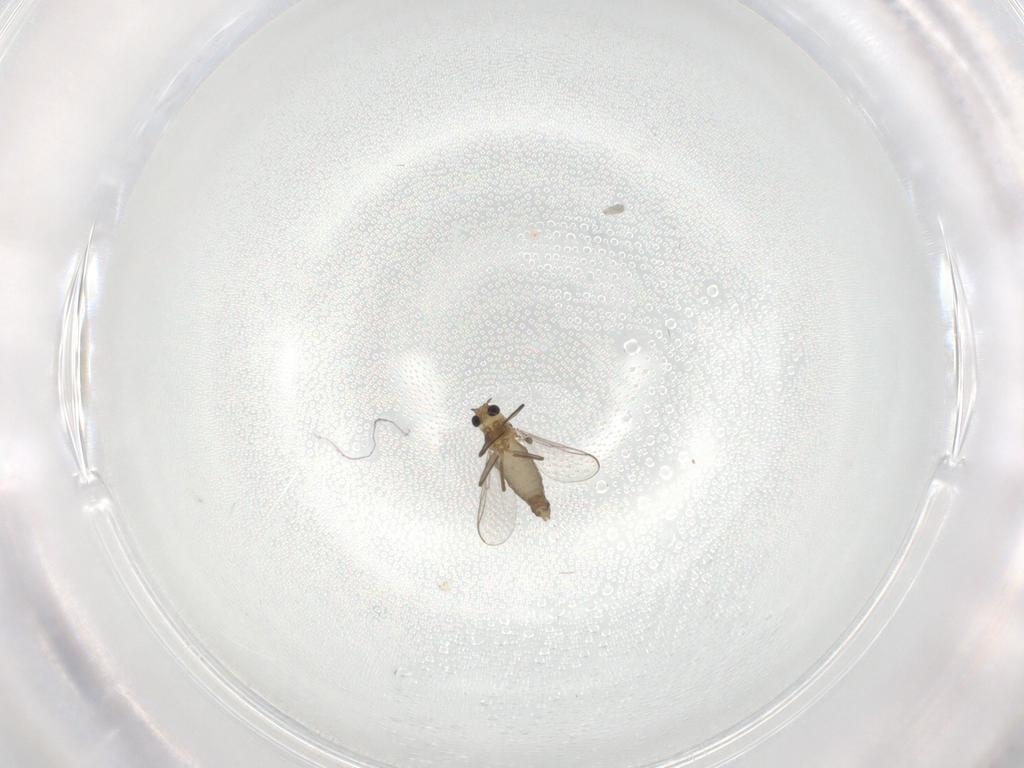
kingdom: Animalia
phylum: Arthropoda
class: Insecta
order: Diptera
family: Chironomidae
